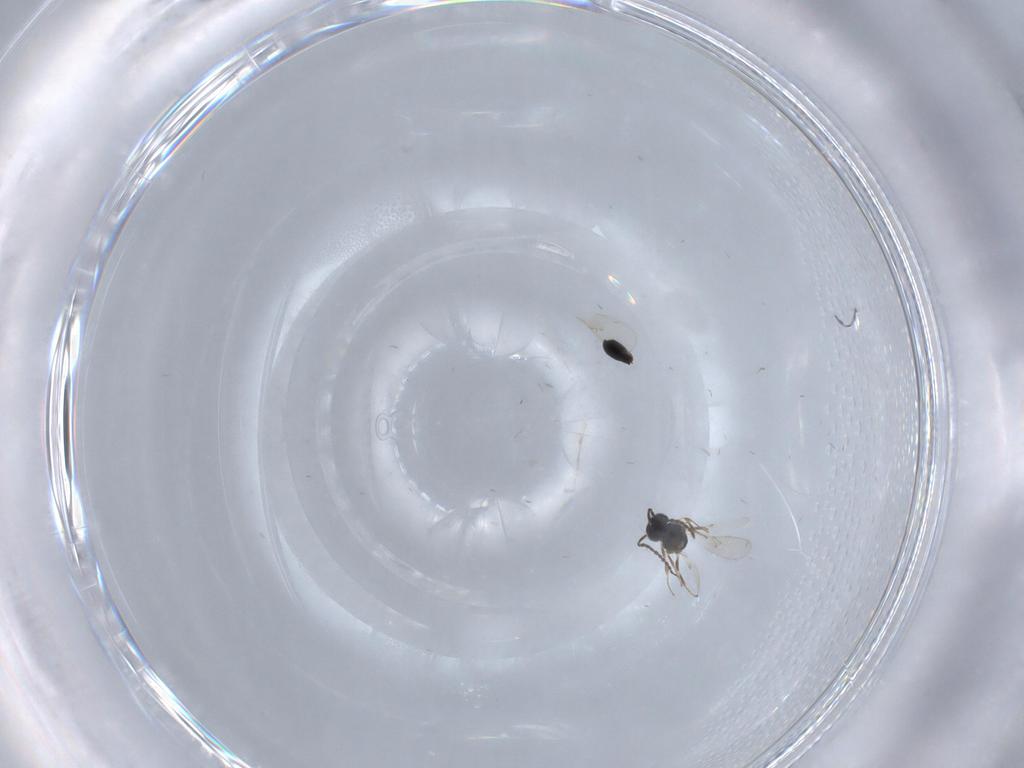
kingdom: Animalia
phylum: Arthropoda
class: Insecta
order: Hymenoptera
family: Scelionidae
